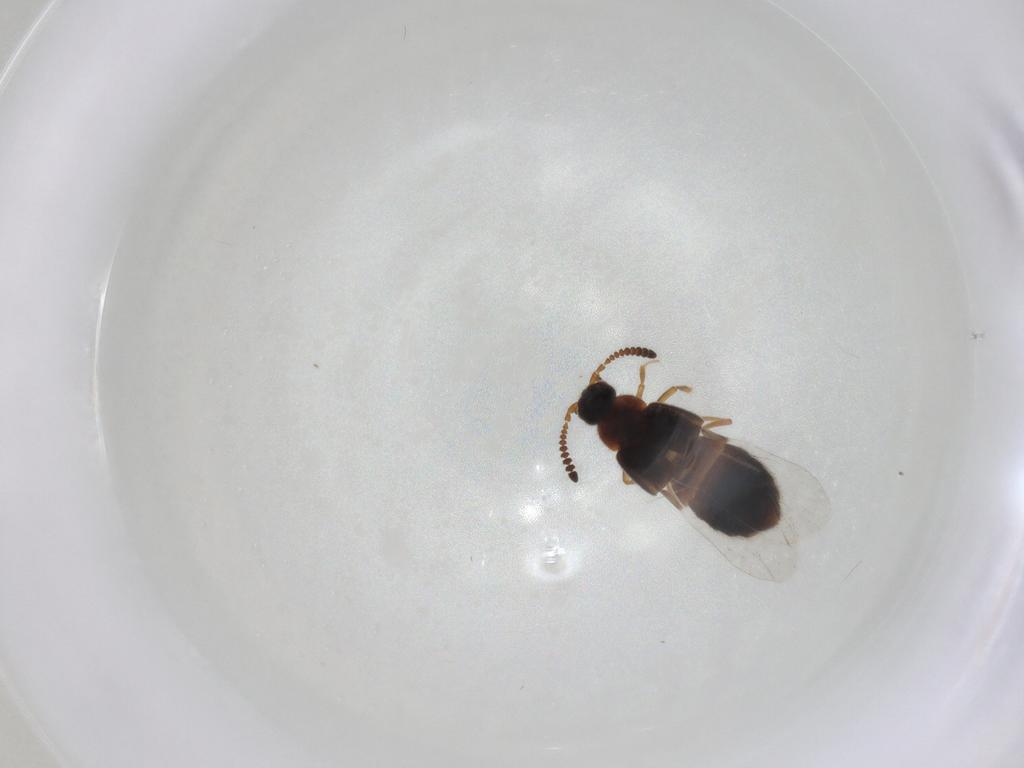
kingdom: Animalia
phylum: Arthropoda
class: Insecta
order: Coleoptera
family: Staphylinidae
